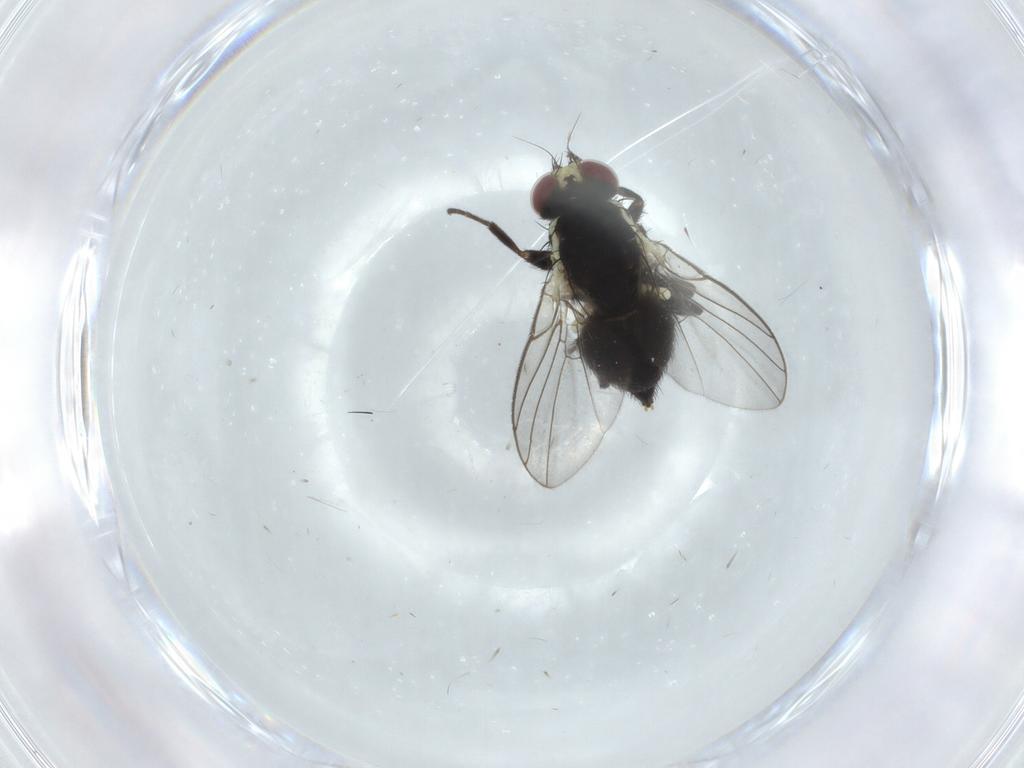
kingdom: Animalia
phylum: Arthropoda
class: Insecta
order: Diptera
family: Agromyzidae
